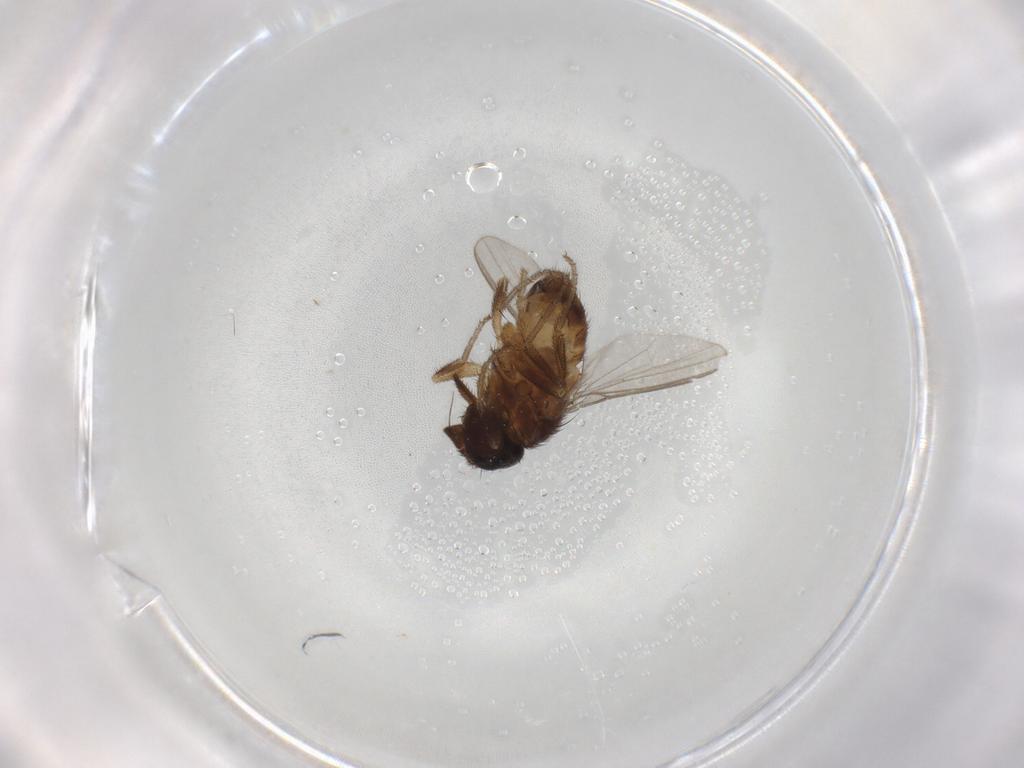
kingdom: Animalia
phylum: Arthropoda
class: Insecta
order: Diptera
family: Milichiidae
